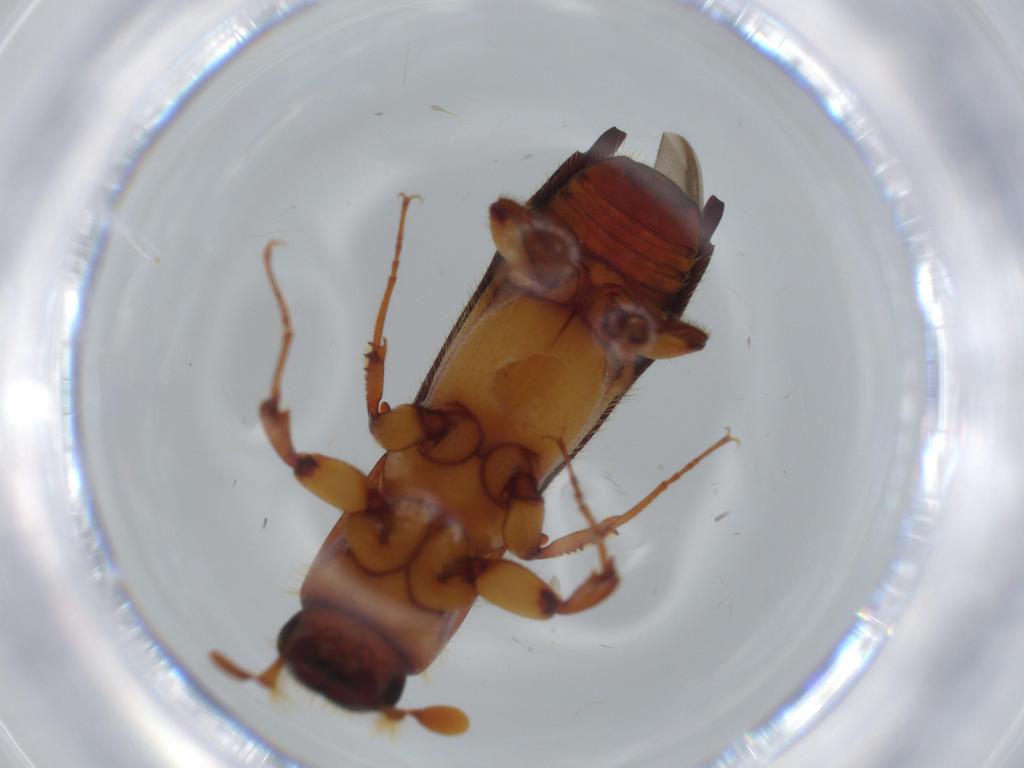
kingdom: Animalia
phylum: Arthropoda
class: Insecta
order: Coleoptera
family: Curculionidae
